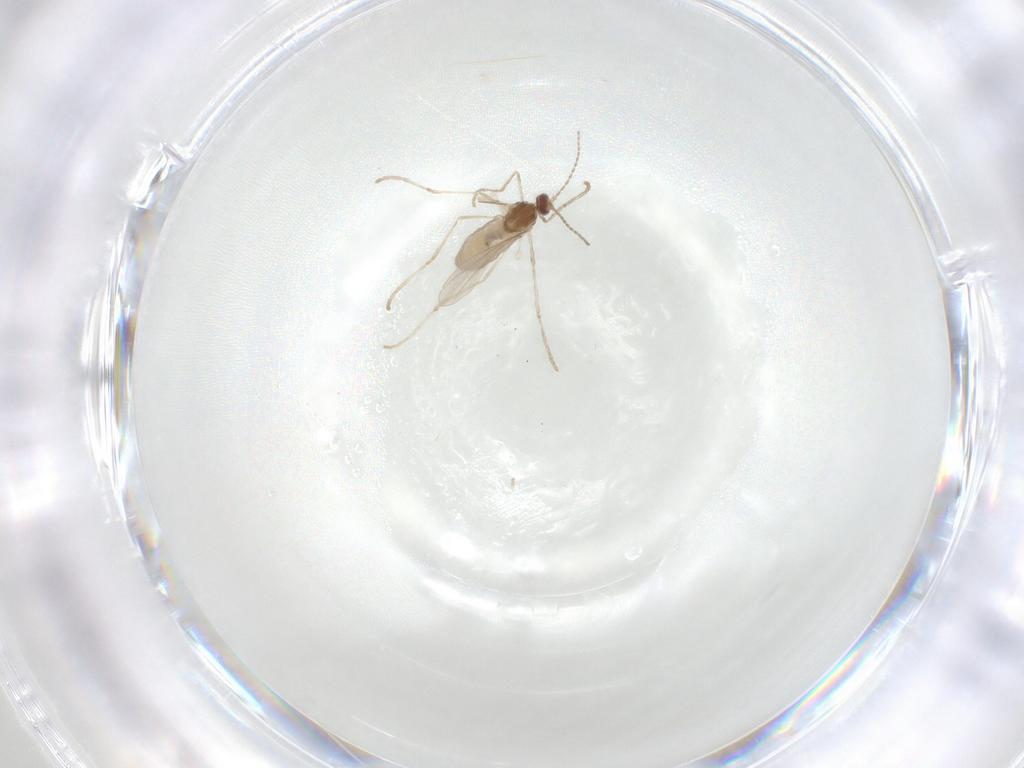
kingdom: Animalia
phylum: Arthropoda
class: Insecta
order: Diptera
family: Cecidomyiidae
